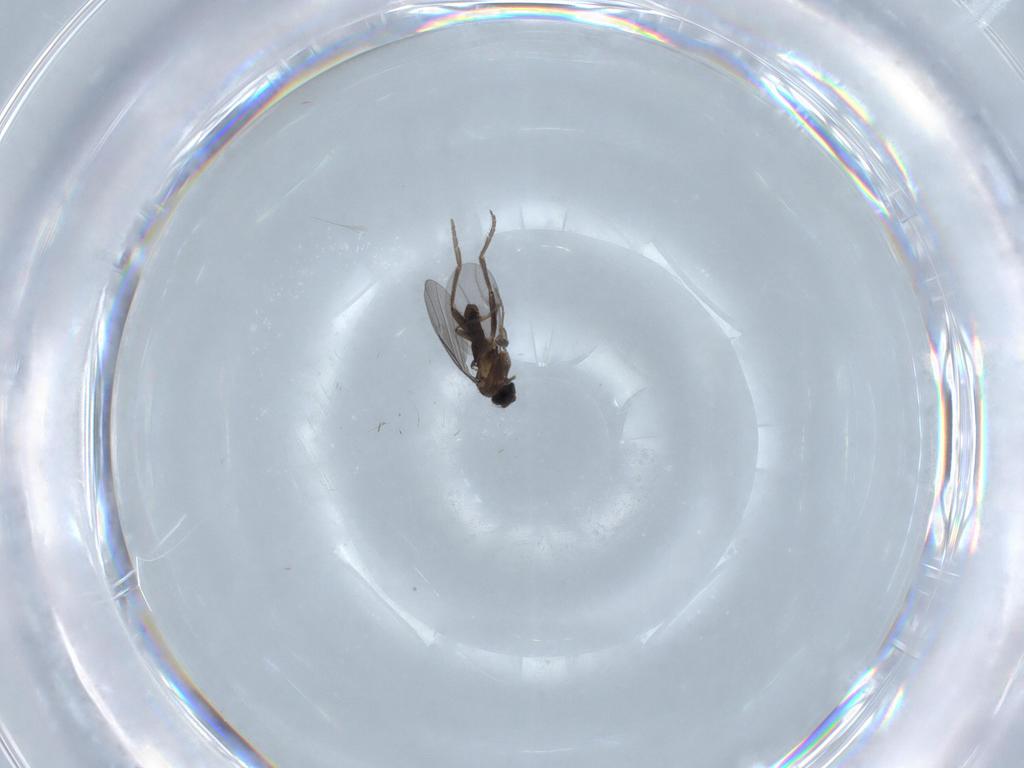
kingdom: Animalia
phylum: Arthropoda
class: Insecta
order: Diptera
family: Phoridae
